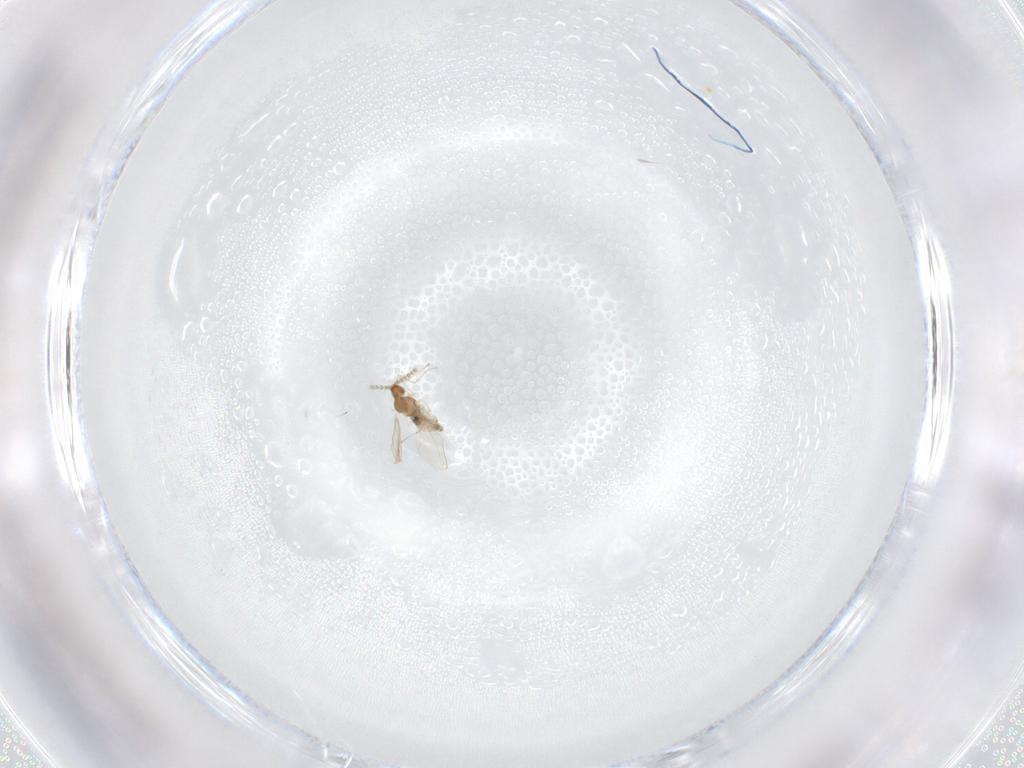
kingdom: Animalia
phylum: Arthropoda
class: Insecta
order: Diptera
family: Cecidomyiidae
